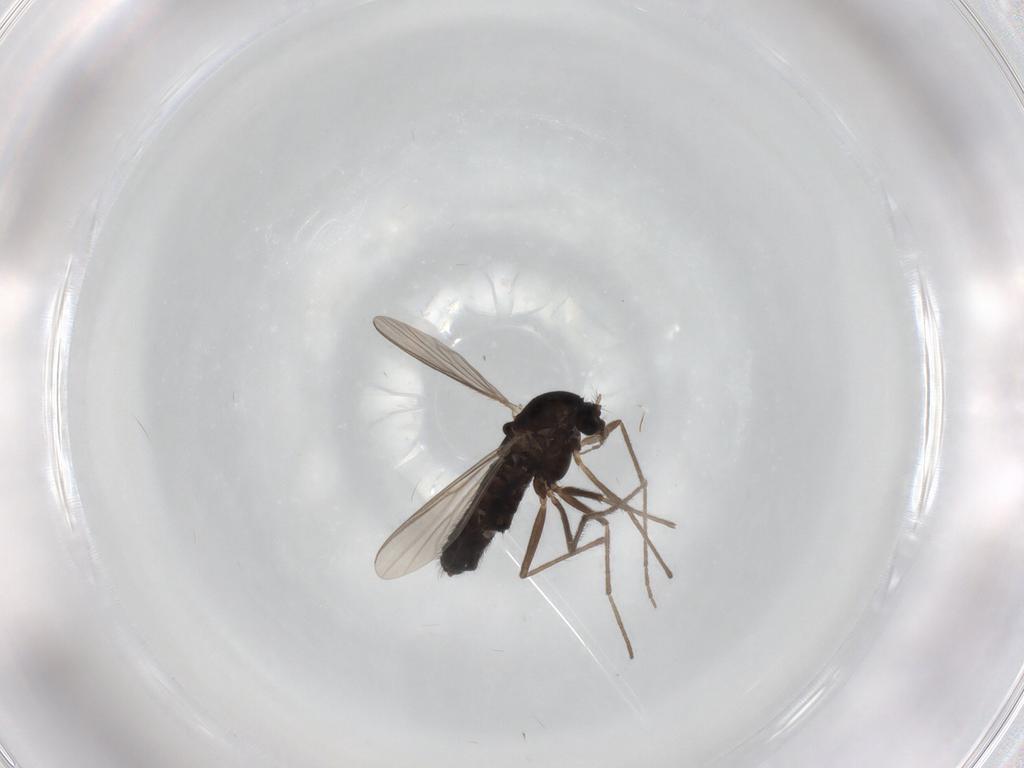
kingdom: Animalia
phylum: Arthropoda
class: Insecta
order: Diptera
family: Chironomidae
